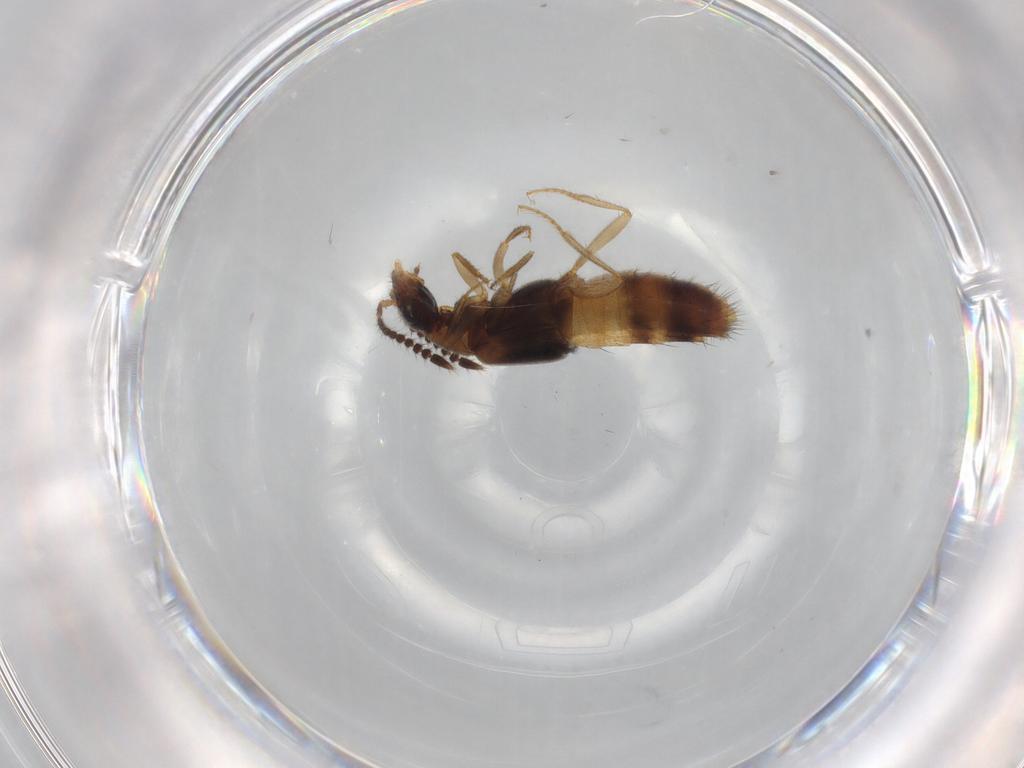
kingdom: Animalia
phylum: Arthropoda
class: Insecta
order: Coleoptera
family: Staphylinidae
